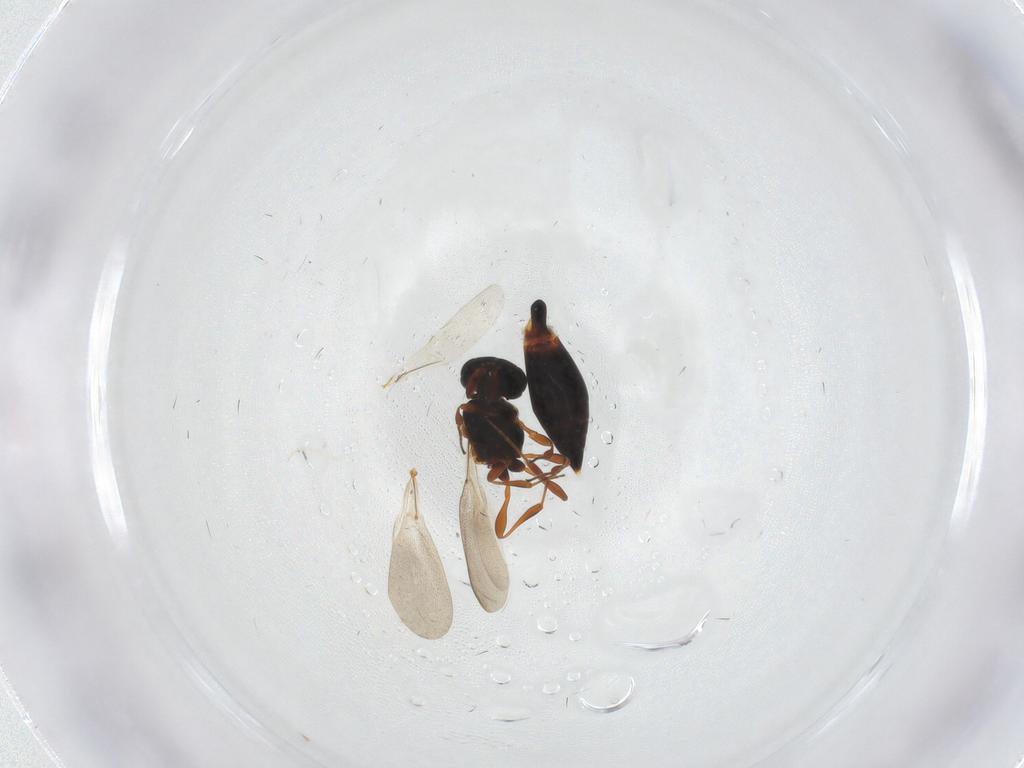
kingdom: Animalia
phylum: Arthropoda
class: Insecta
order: Hymenoptera
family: Platygastridae
